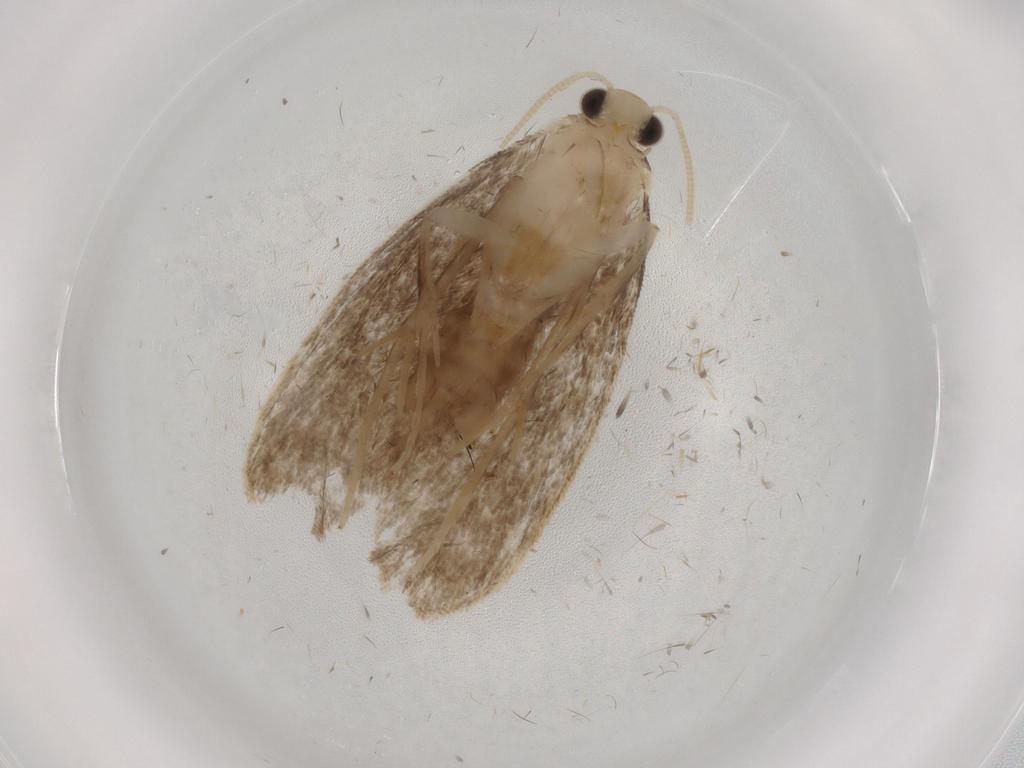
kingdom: Animalia
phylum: Arthropoda
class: Insecta
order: Lepidoptera
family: Dryadaulidae
